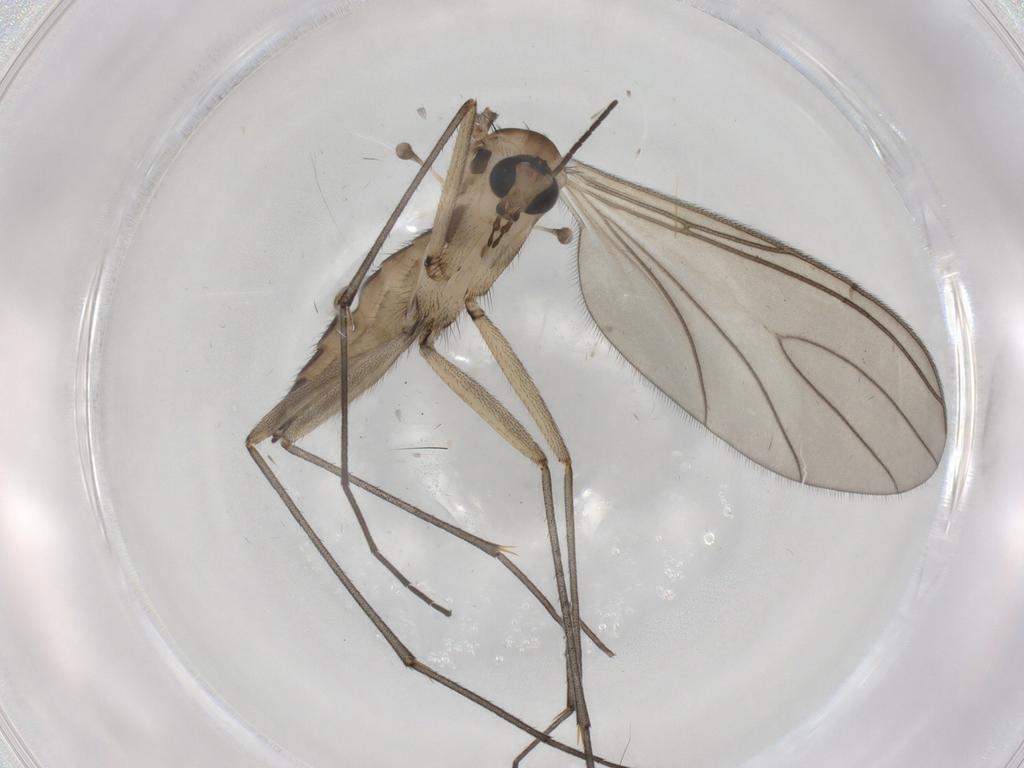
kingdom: Animalia
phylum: Arthropoda
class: Insecta
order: Diptera
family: Sciaridae
